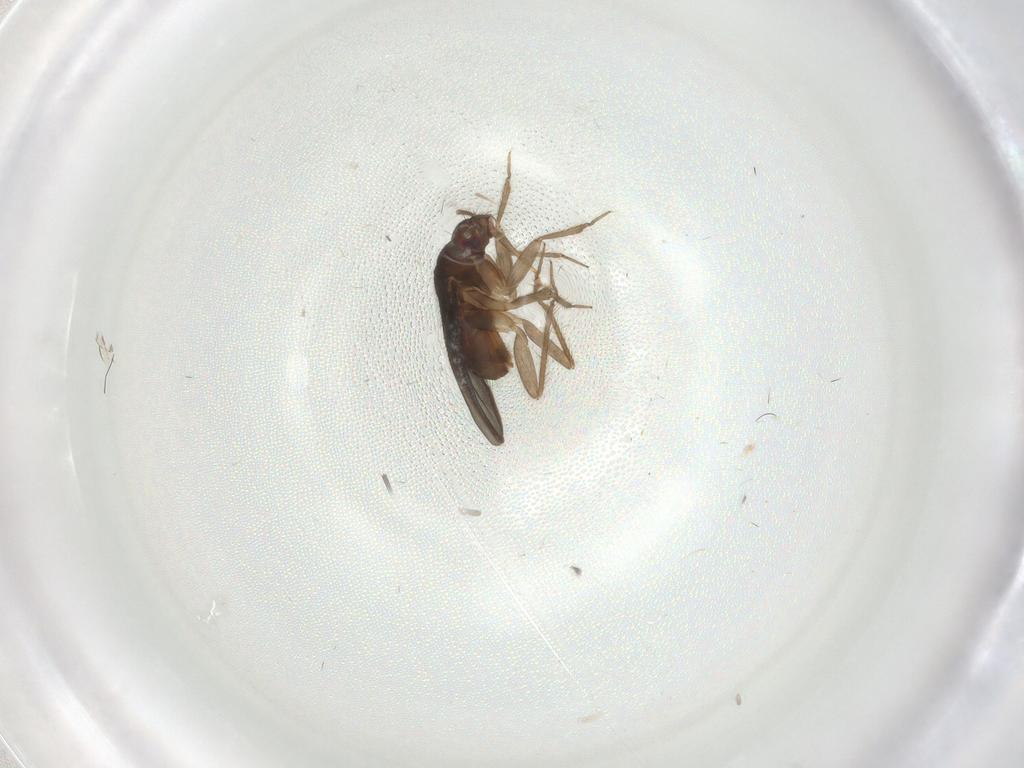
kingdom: Animalia
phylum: Arthropoda
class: Insecta
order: Hemiptera
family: Ceratocombidae
